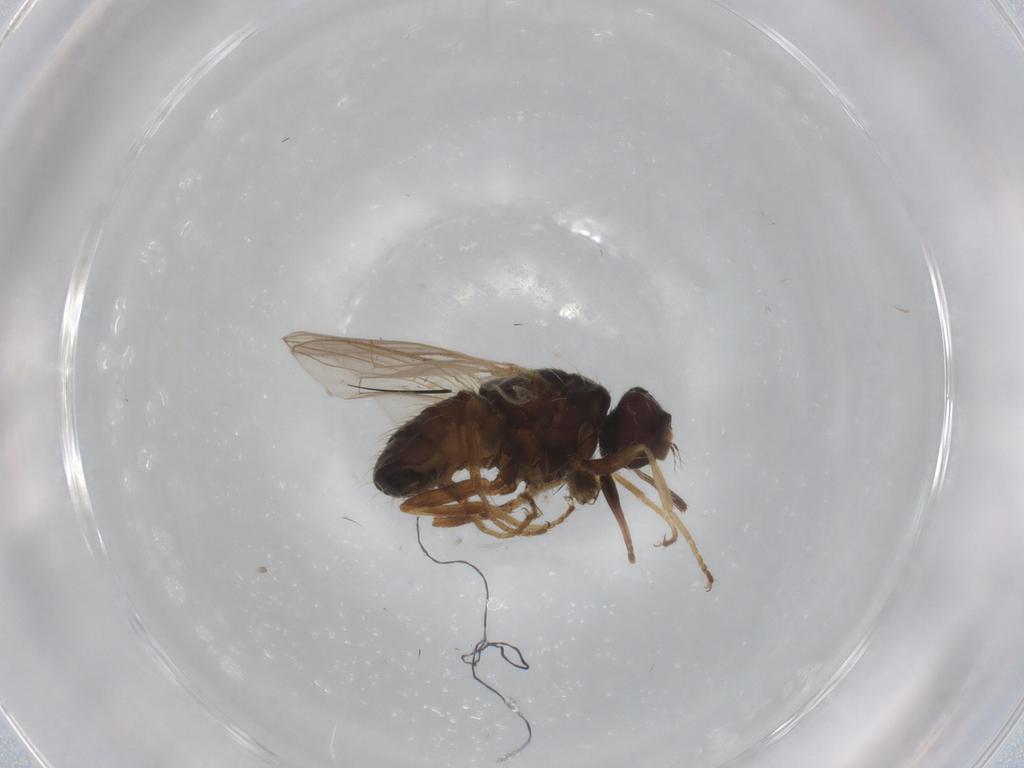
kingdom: Animalia
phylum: Arthropoda
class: Insecta
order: Diptera
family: Muscidae
